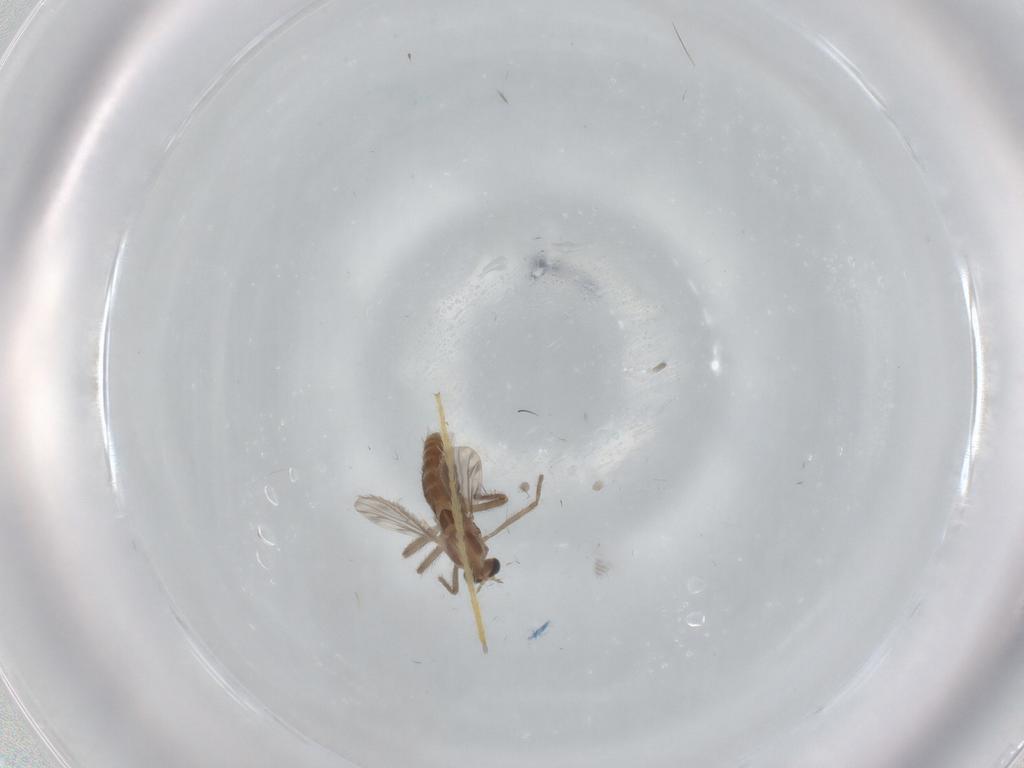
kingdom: Animalia
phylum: Arthropoda
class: Insecta
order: Diptera
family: Chironomidae
